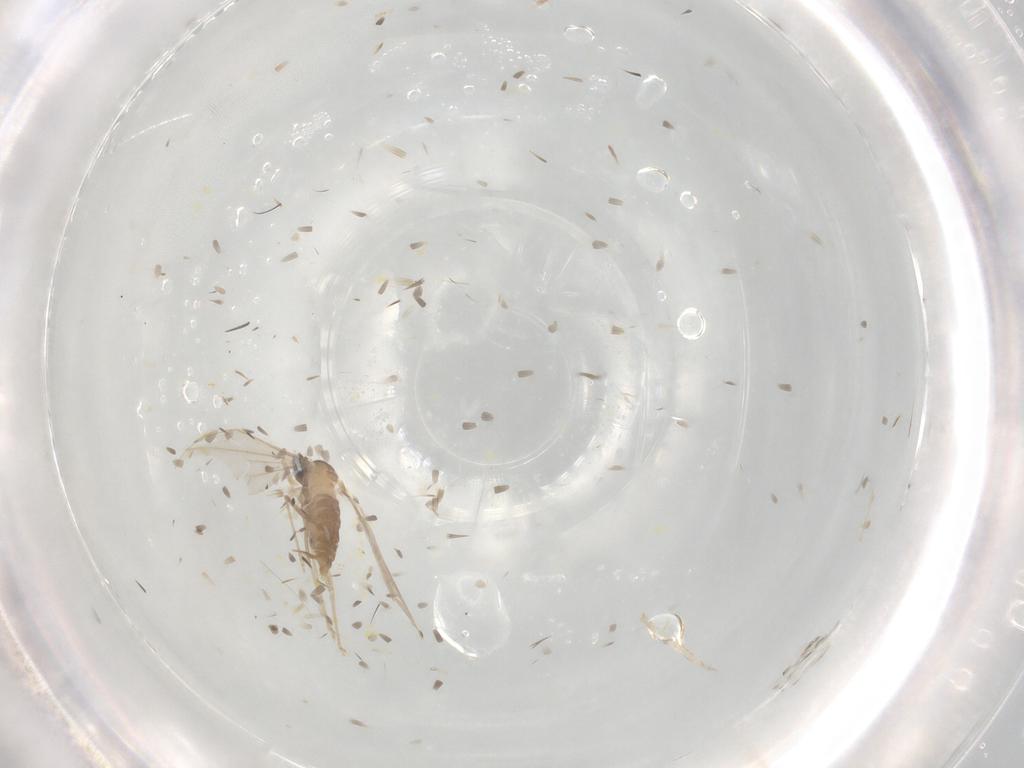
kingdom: Animalia
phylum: Arthropoda
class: Insecta
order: Diptera
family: Cecidomyiidae
